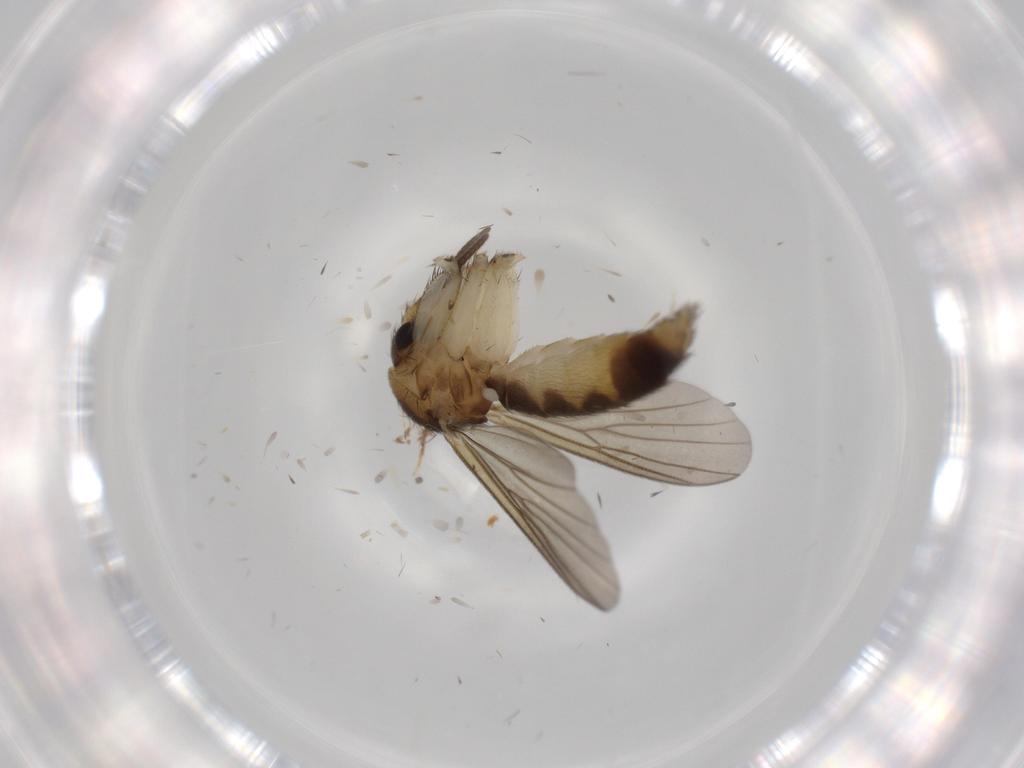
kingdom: Animalia
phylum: Arthropoda
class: Insecta
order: Diptera
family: Mycetophilidae
